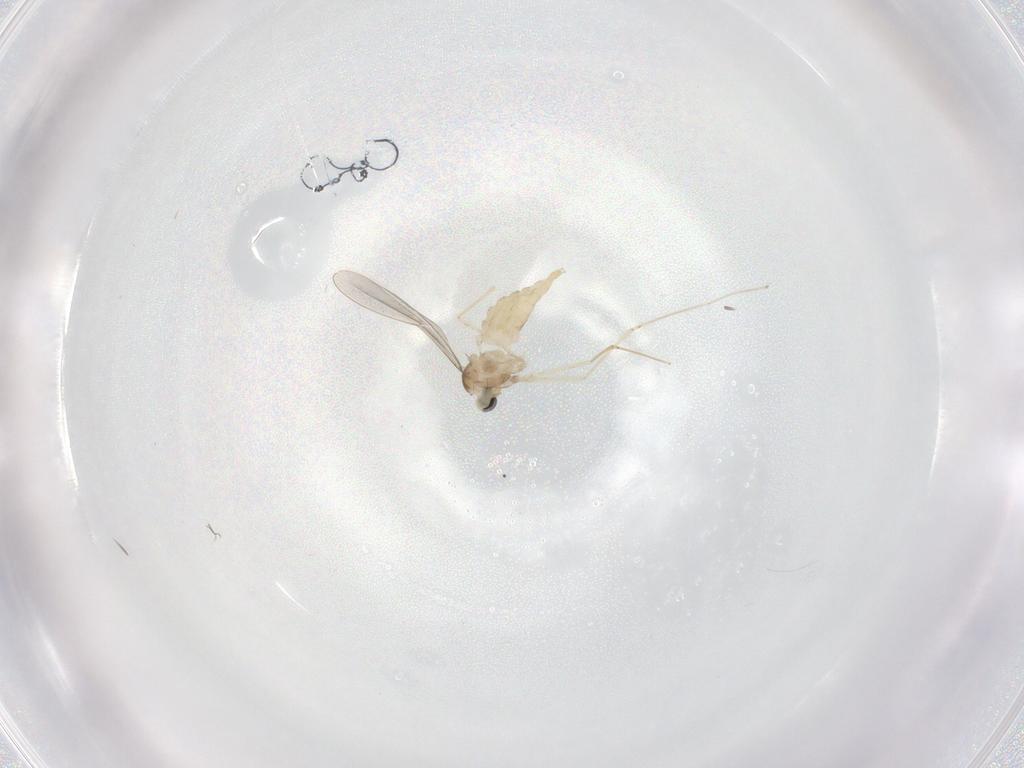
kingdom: Animalia
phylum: Arthropoda
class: Insecta
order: Diptera
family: Cecidomyiidae
